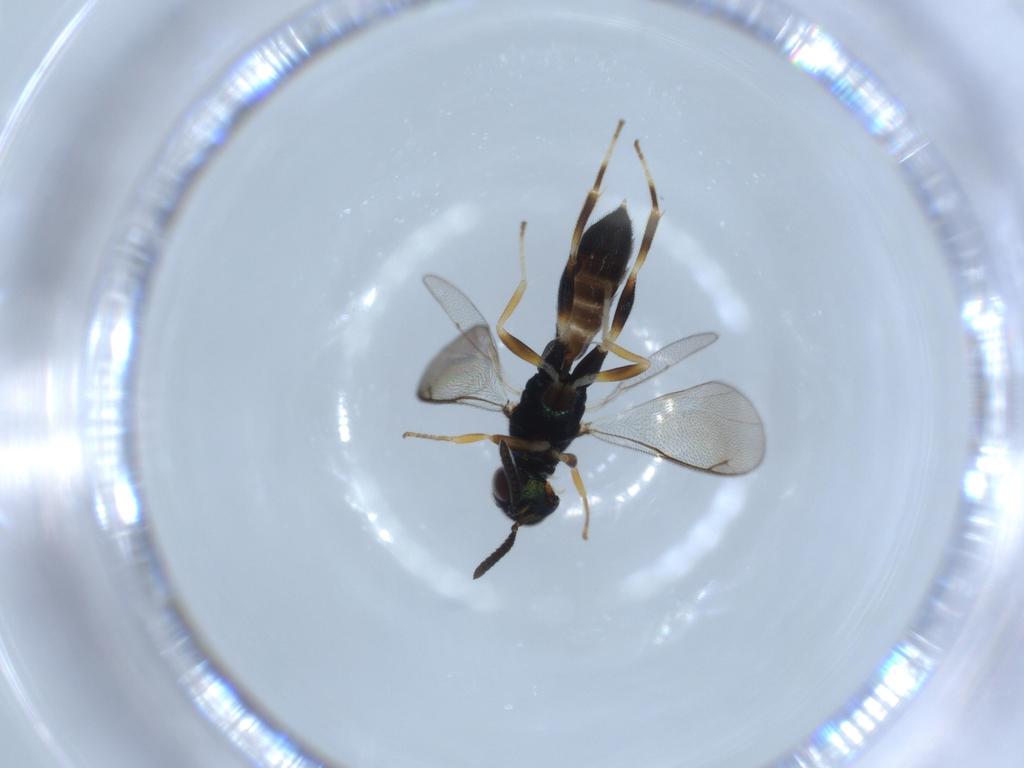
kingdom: Animalia
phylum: Arthropoda
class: Insecta
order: Hymenoptera
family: Formicidae
